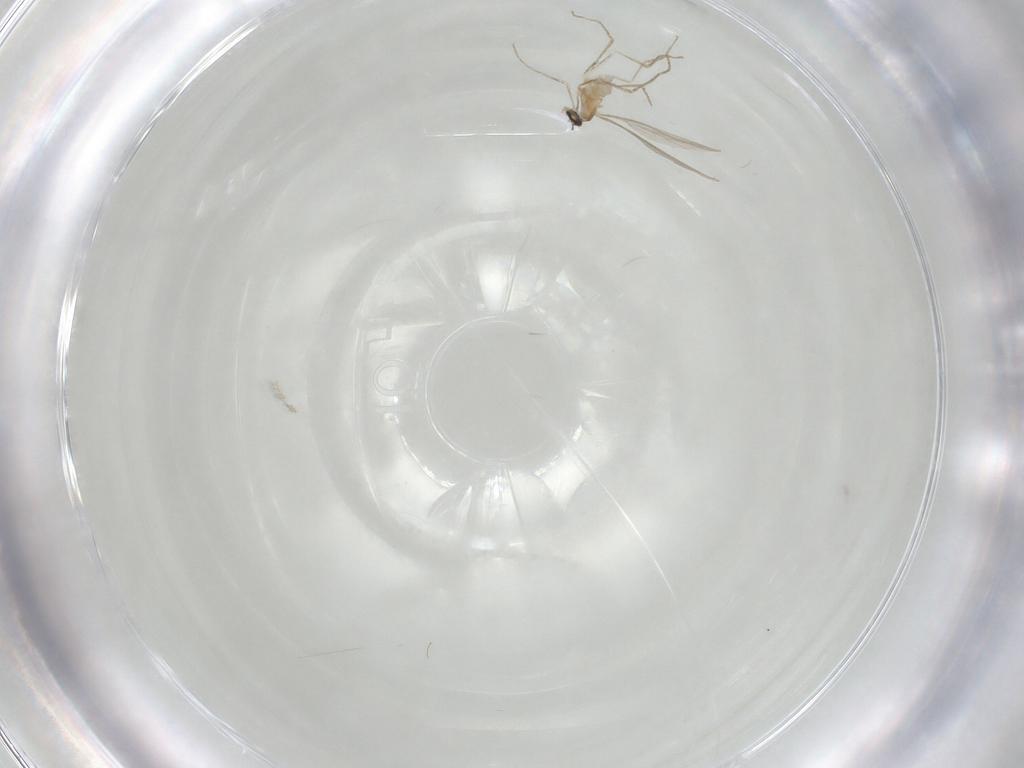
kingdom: Animalia
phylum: Arthropoda
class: Insecta
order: Diptera
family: Cecidomyiidae
